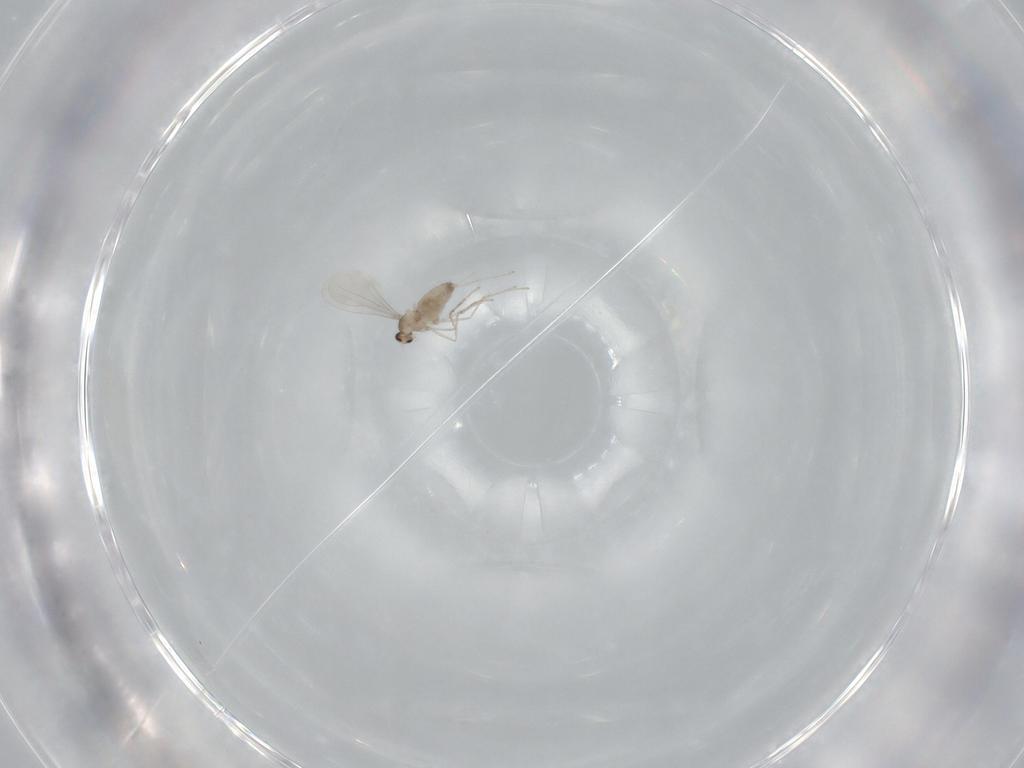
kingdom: Animalia
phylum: Arthropoda
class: Insecta
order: Diptera
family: Cecidomyiidae
